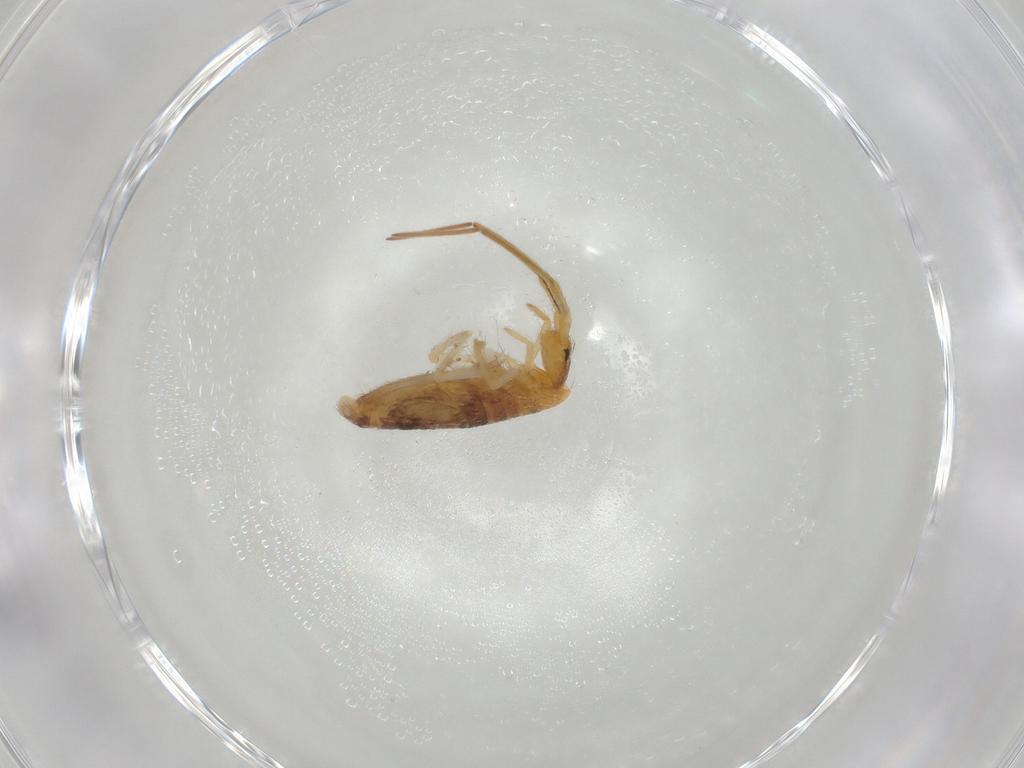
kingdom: Animalia
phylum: Arthropoda
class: Collembola
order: Entomobryomorpha
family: Entomobryidae
